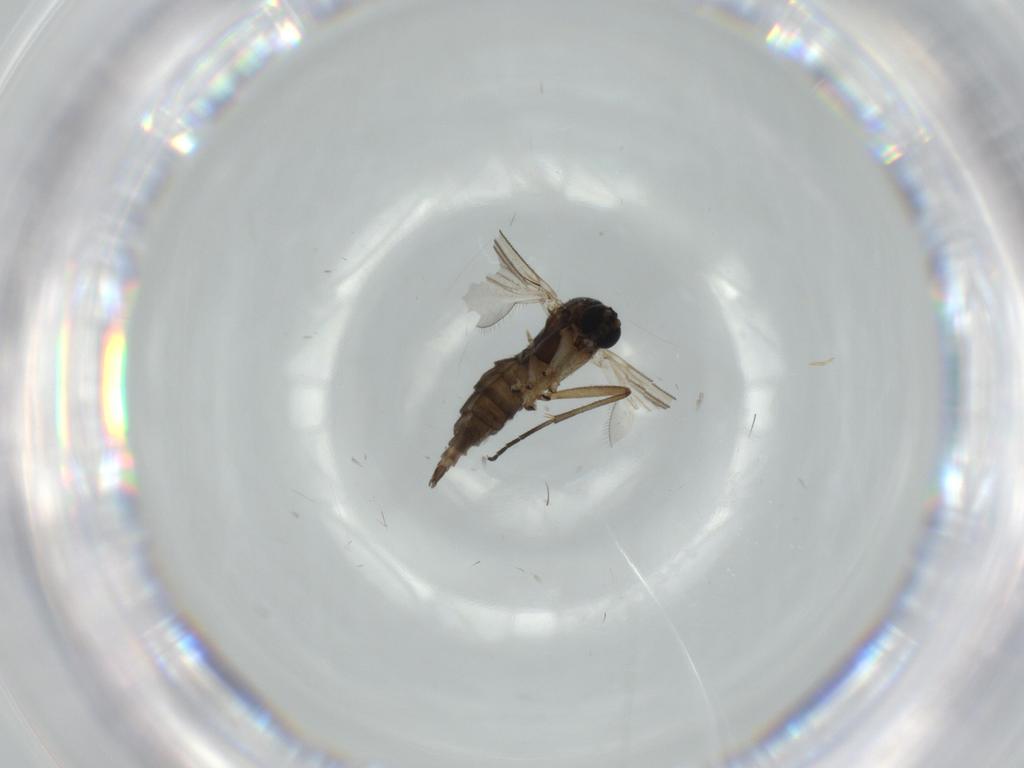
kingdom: Animalia
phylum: Arthropoda
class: Insecta
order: Diptera
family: Sciaridae
